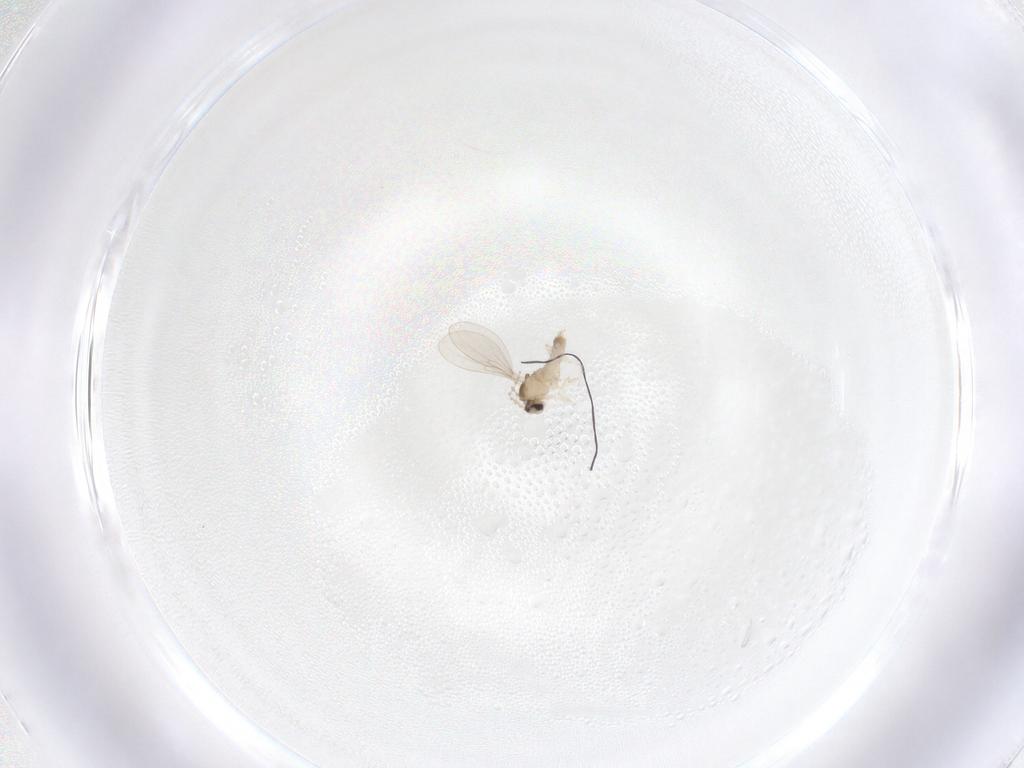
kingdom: Animalia
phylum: Arthropoda
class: Insecta
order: Diptera
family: Cecidomyiidae
